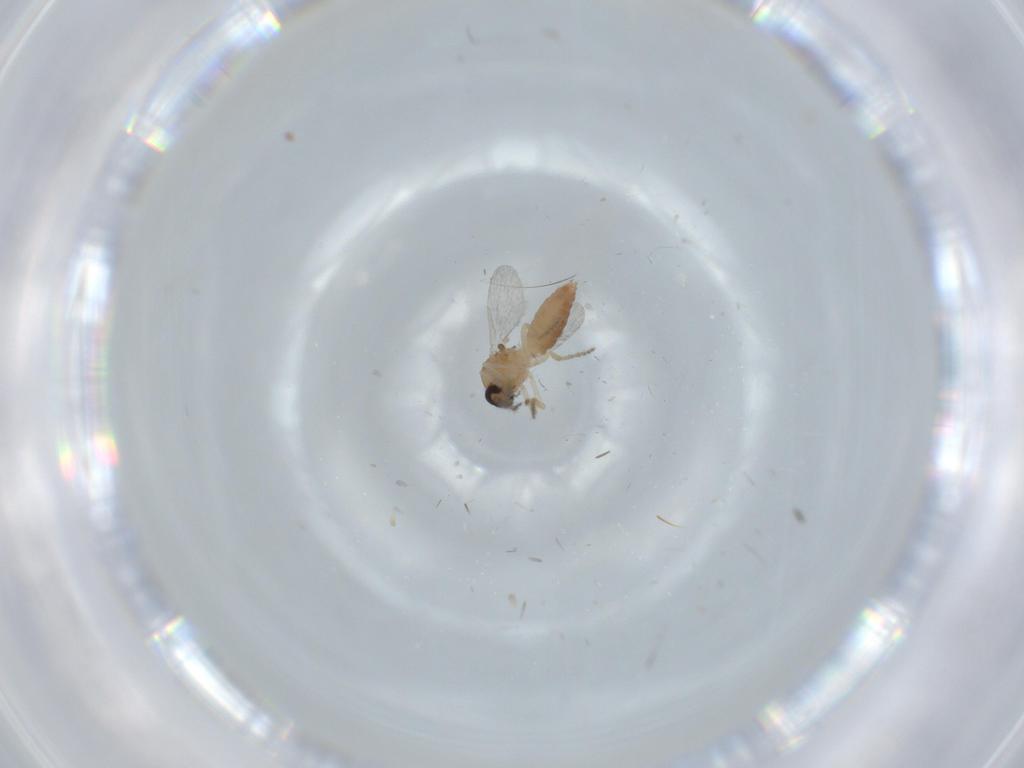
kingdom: Animalia
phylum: Arthropoda
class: Insecta
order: Diptera
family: Ceratopogonidae
